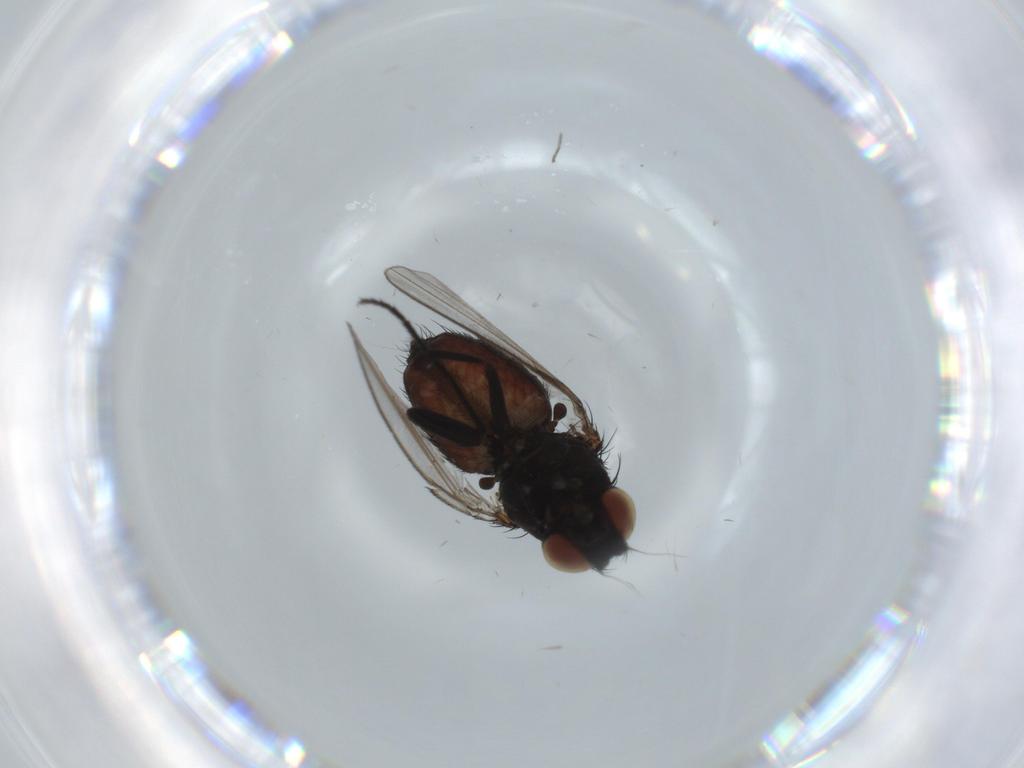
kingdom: Animalia
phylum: Arthropoda
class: Insecta
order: Diptera
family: Milichiidae
